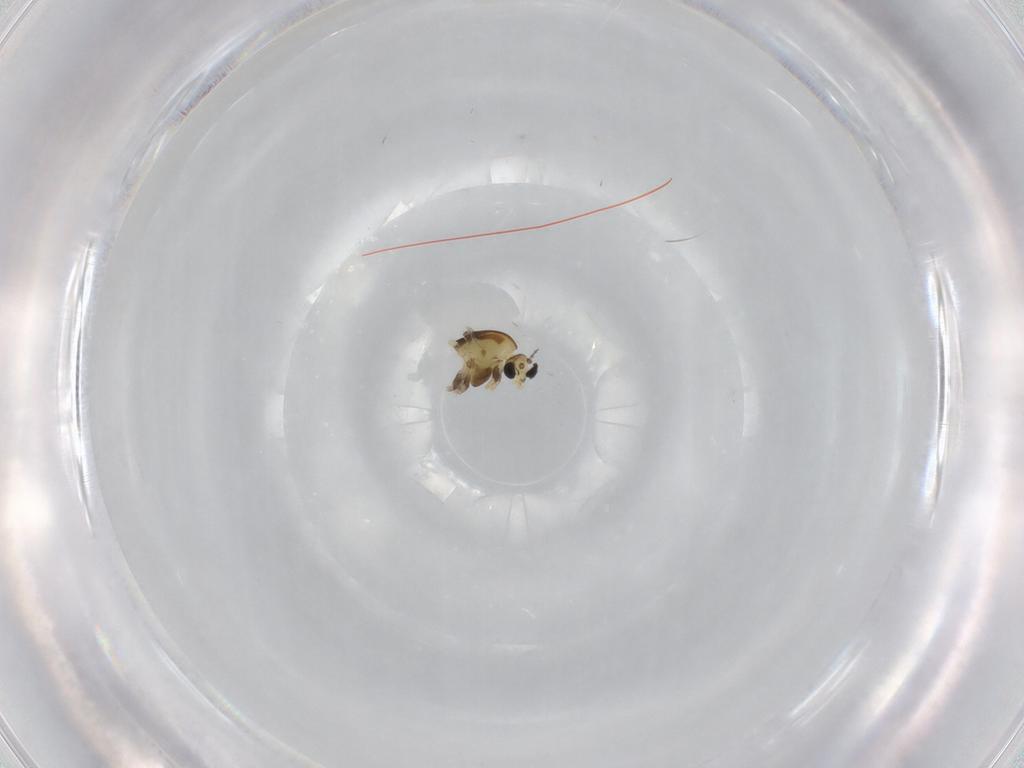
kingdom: Animalia
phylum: Arthropoda
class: Insecta
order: Diptera
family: Chironomidae
